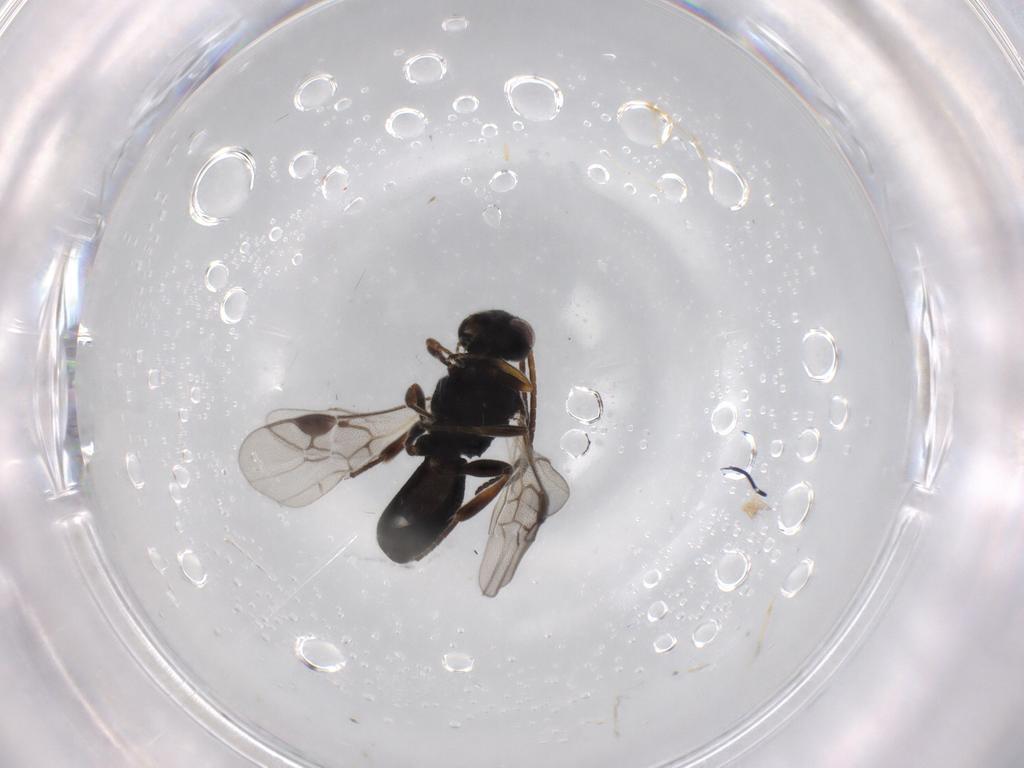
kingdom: Animalia
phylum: Arthropoda
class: Insecta
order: Hymenoptera
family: Braconidae
